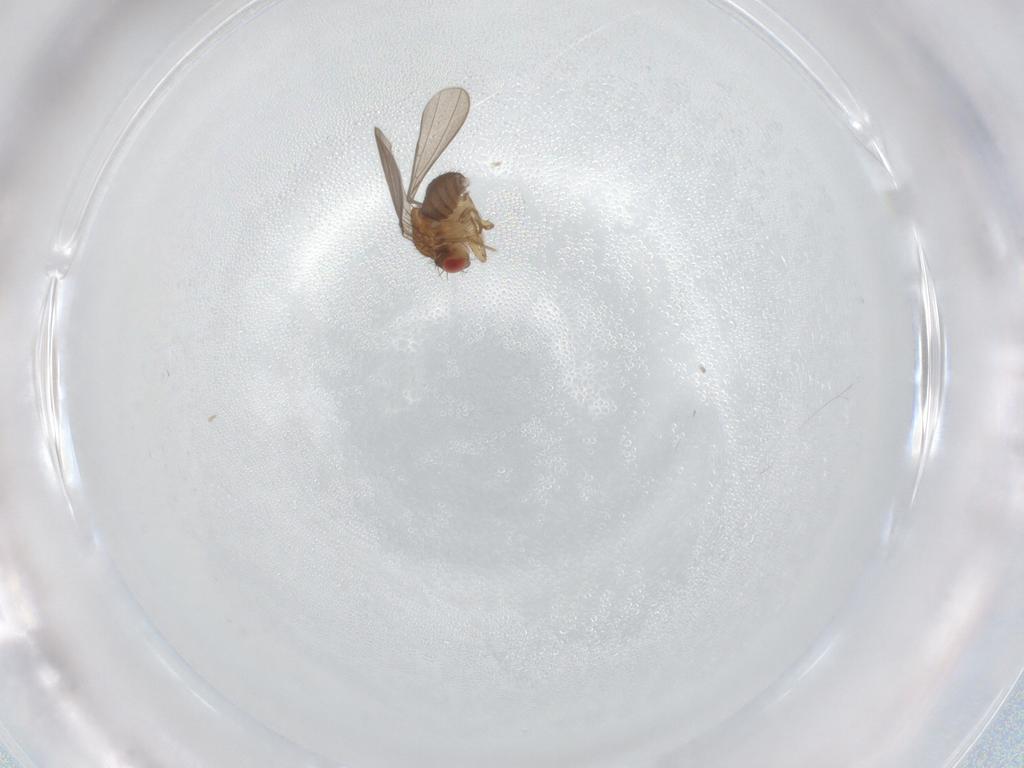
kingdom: Animalia
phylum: Arthropoda
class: Insecta
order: Diptera
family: Drosophilidae
